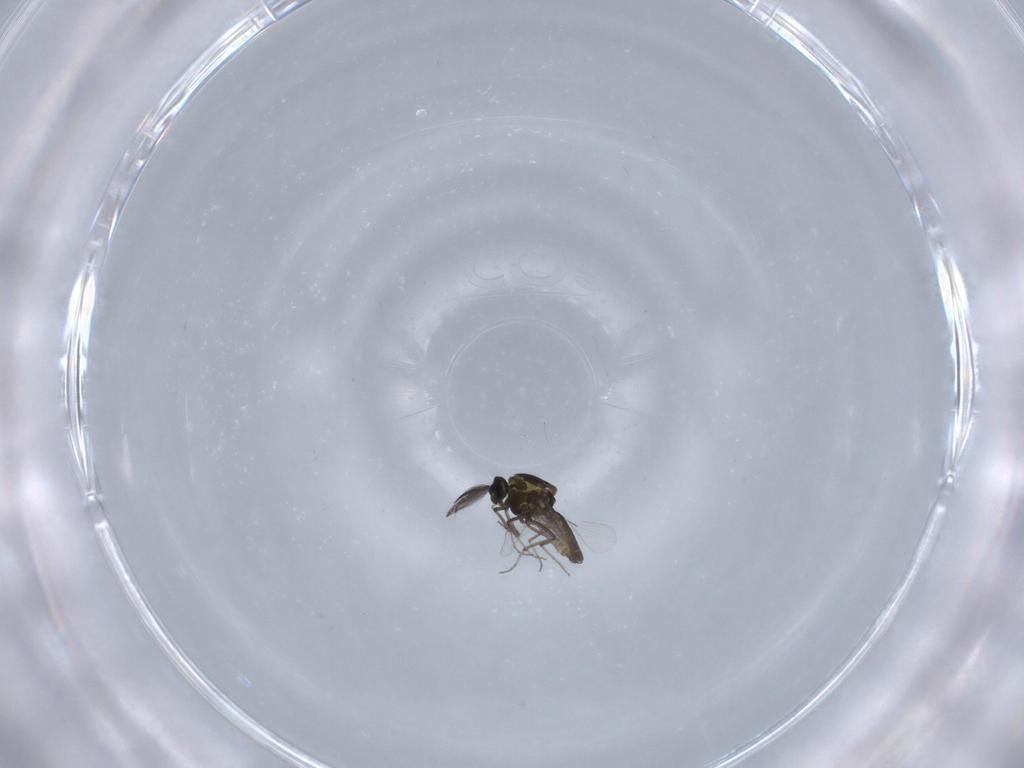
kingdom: Animalia
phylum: Arthropoda
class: Insecta
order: Diptera
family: Ceratopogonidae
